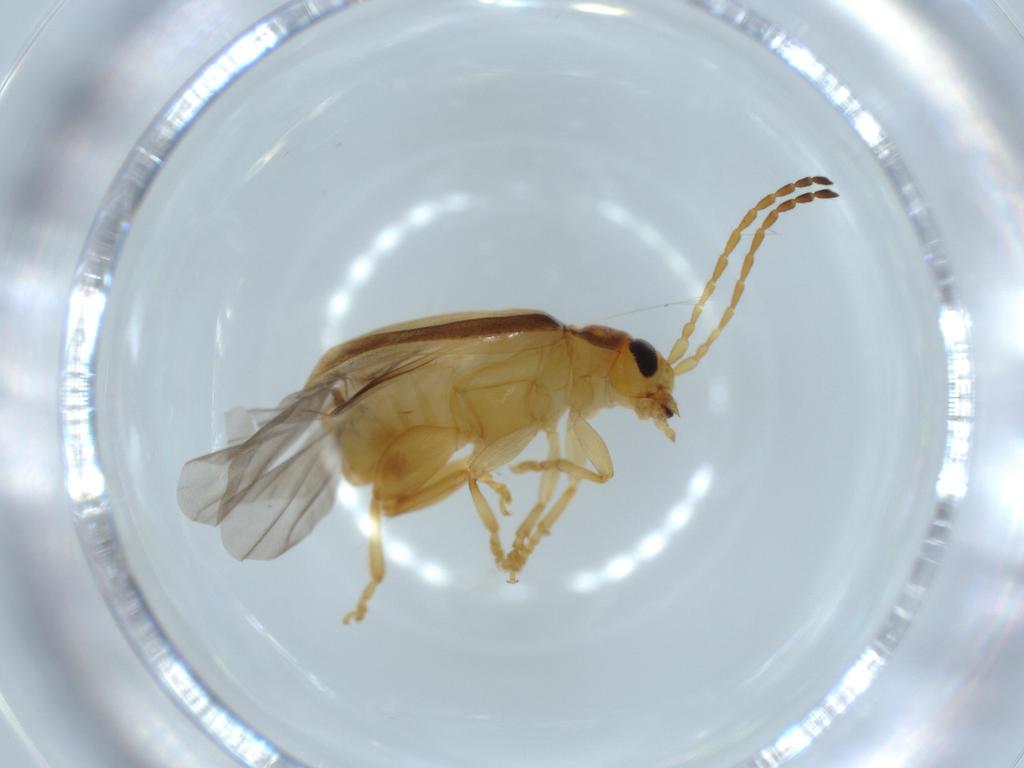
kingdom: Animalia
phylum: Arthropoda
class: Insecta
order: Coleoptera
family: Chrysomelidae
